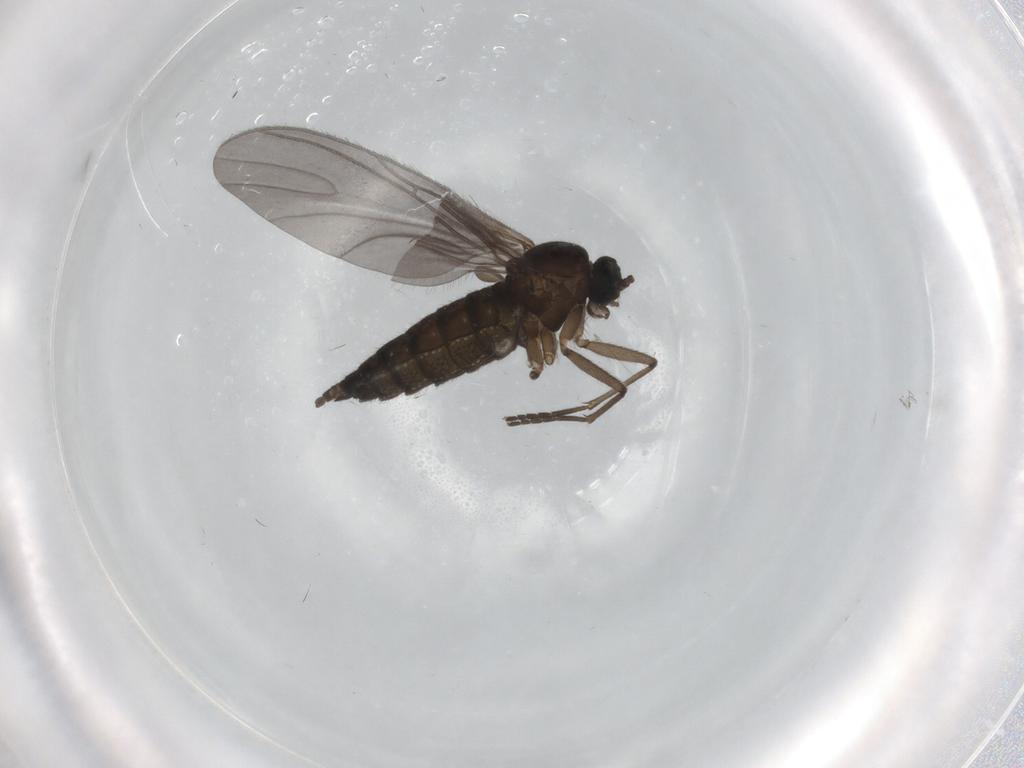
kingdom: Animalia
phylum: Arthropoda
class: Insecta
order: Diptera
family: Sciaridae
